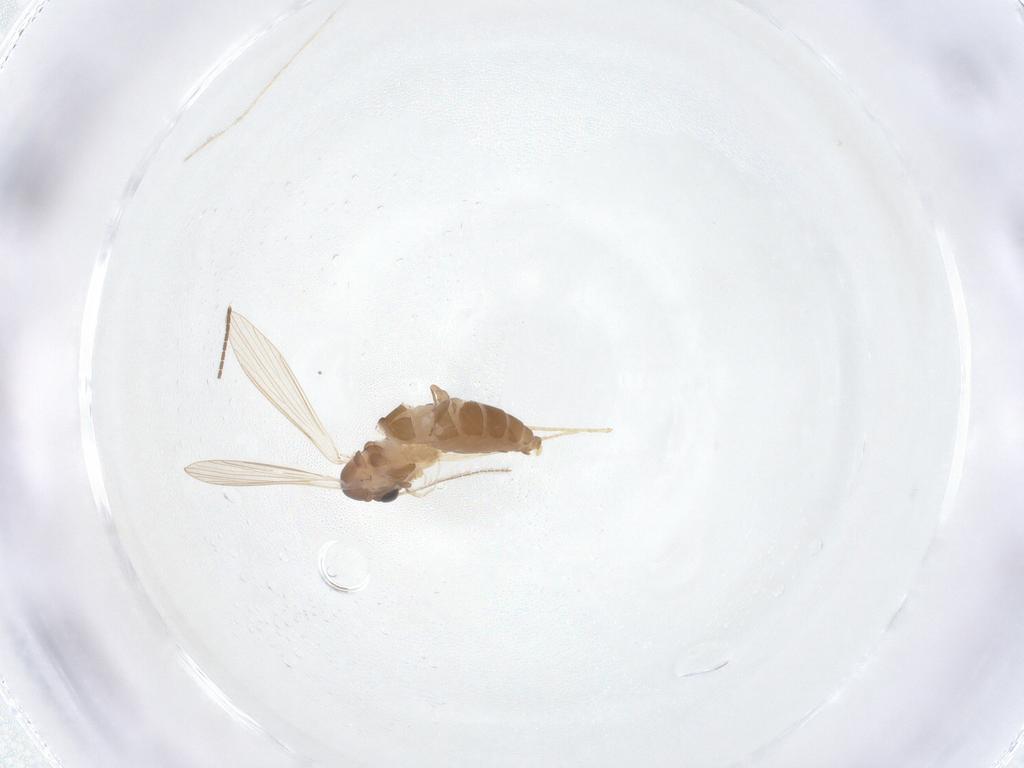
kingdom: Animalia
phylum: Arthropoda
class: Insecta
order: Diptera
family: Psychodidae
